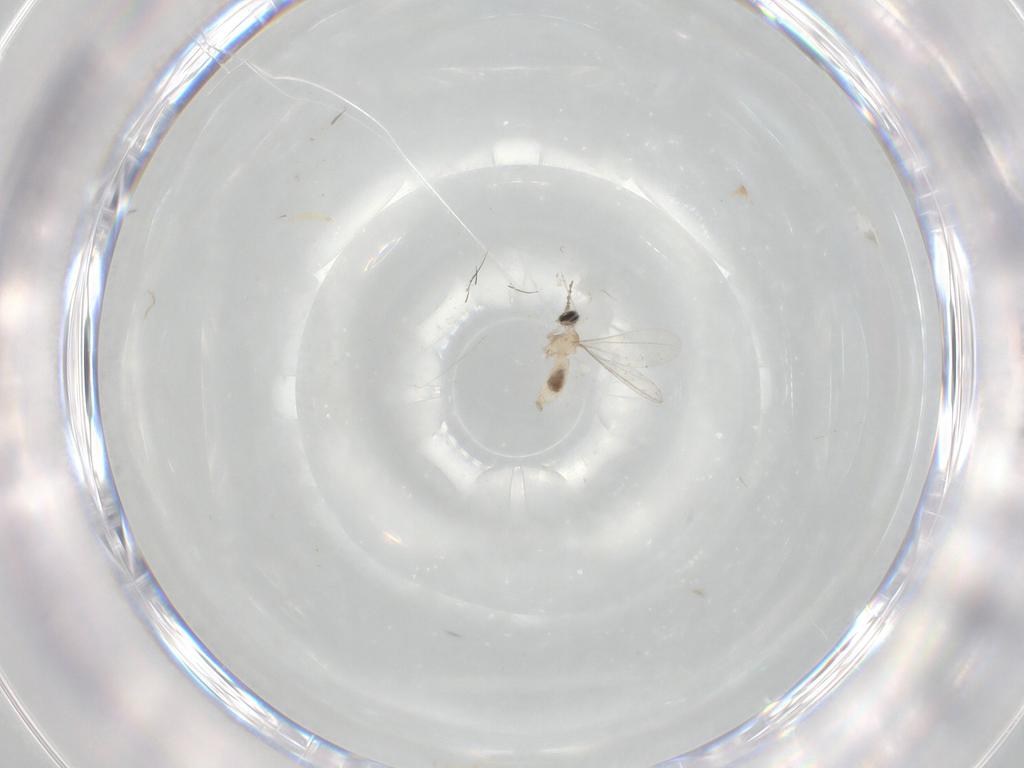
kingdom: Animalia
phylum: Arthropoda
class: Insecta
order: Diptera
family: Cecidomyiidae
